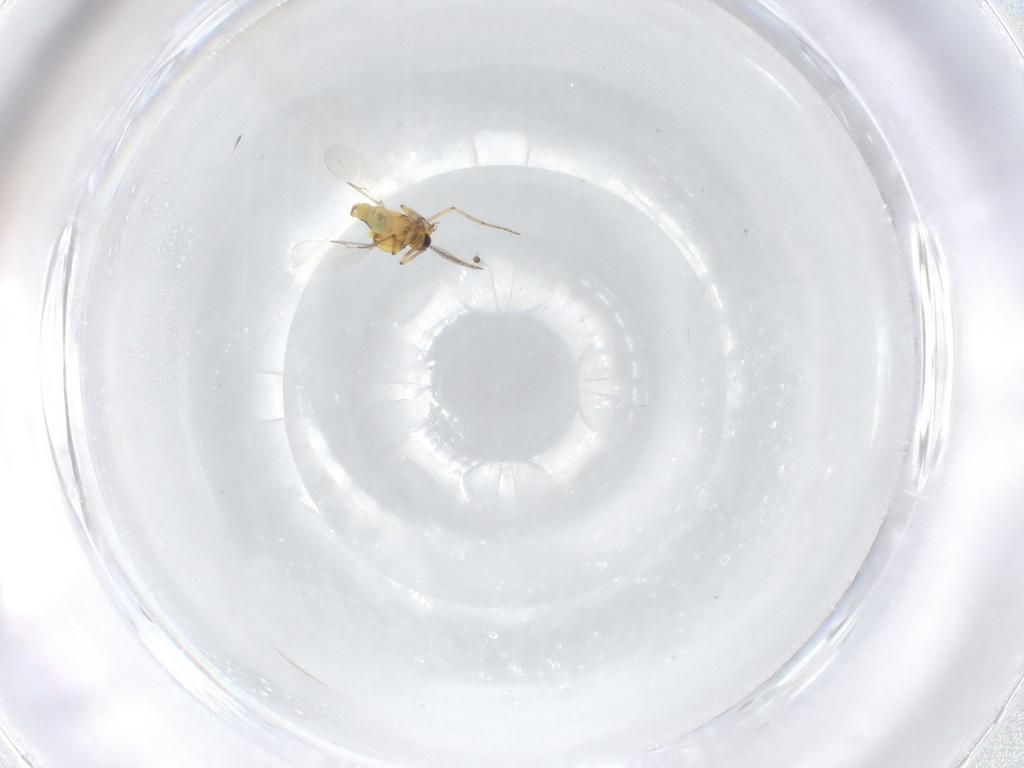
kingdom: Animalia
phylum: Arthropoda
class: Insecta
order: Diptera
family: Ceratopogonidae
